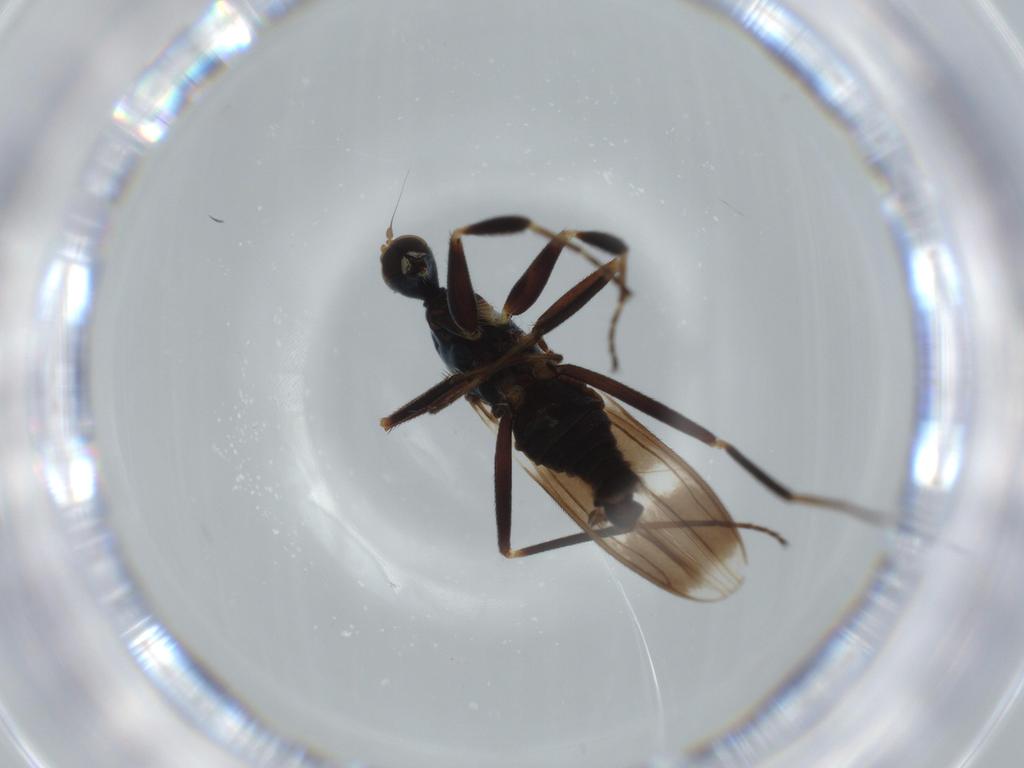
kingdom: Animalia
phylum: Arthropoda
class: Insecta
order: Diptera
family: Hybotidae
